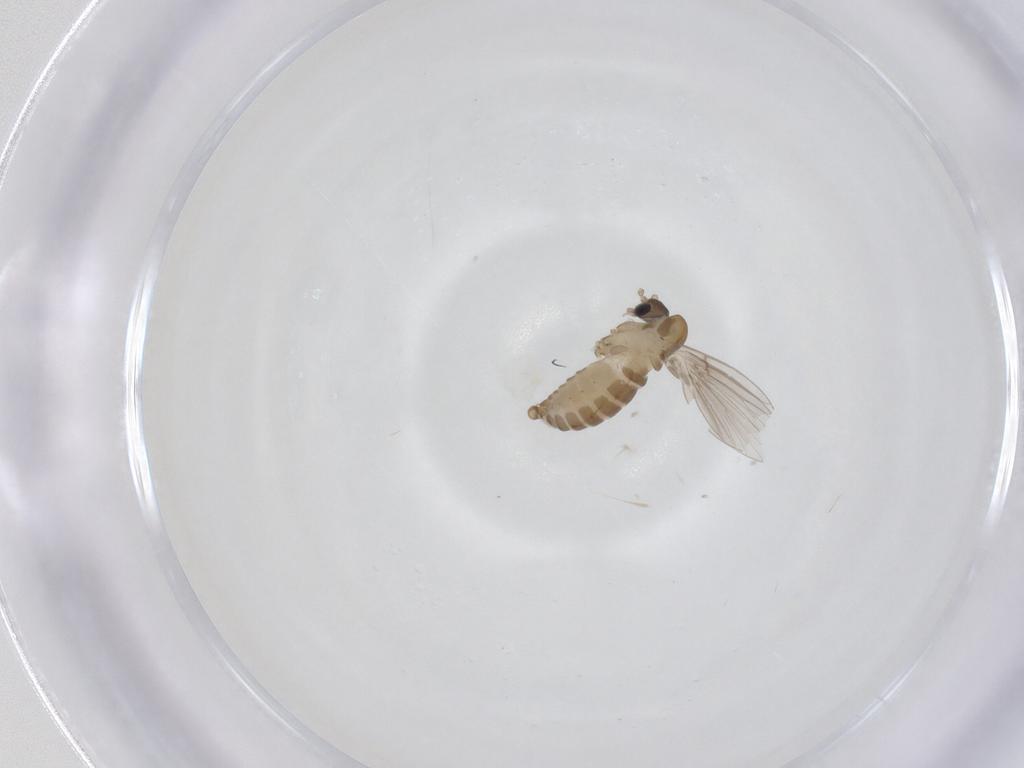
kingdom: Animalia
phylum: Arthropoda
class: Insecta
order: Diptera
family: Psychodidae
